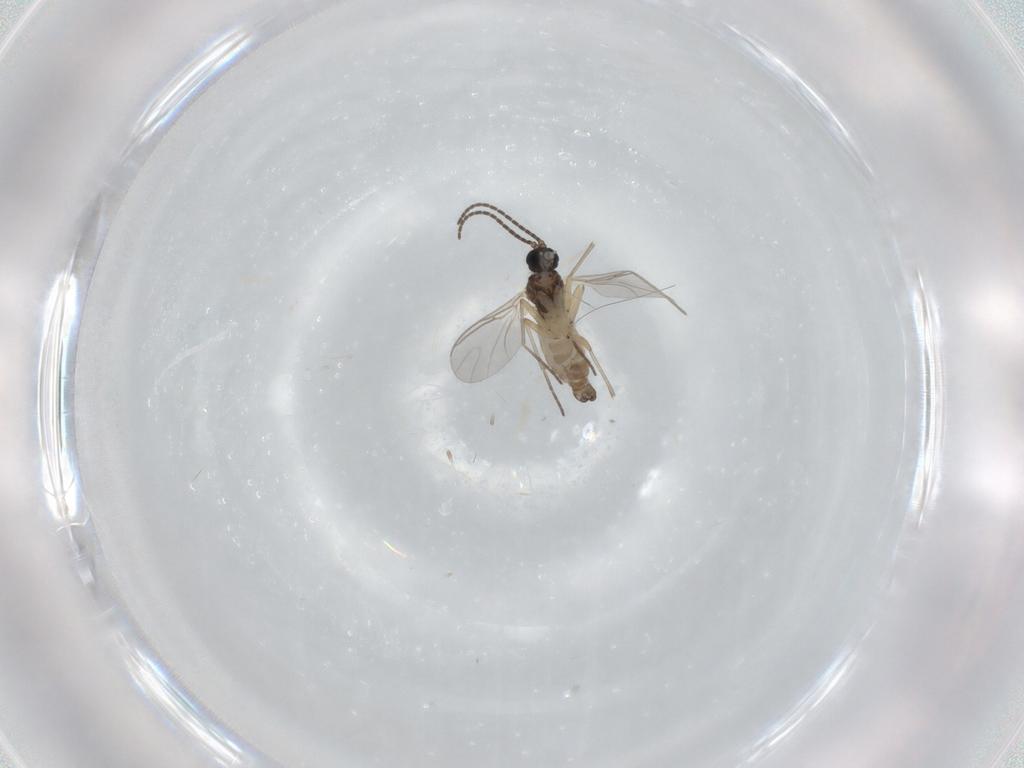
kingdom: Animalia
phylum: Arthropoda
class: Insecta
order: Diptera
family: Sciaridae
